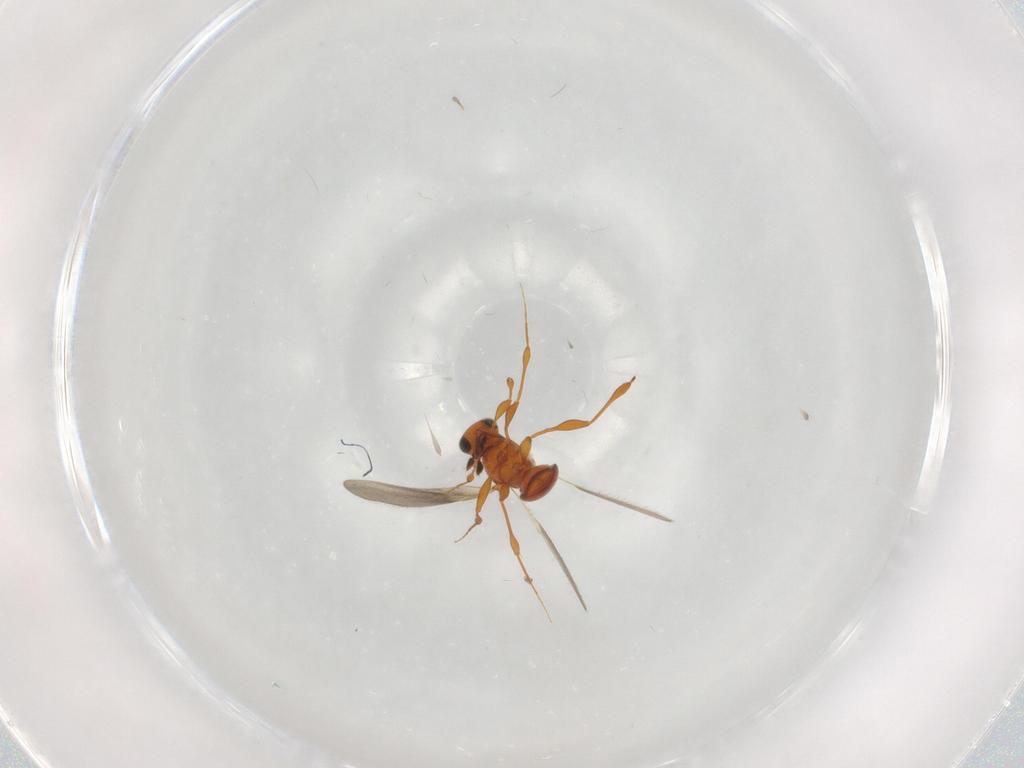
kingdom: Animalia
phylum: Arthropoda
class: Insecta
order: Hymenoptera
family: Platygastridae
